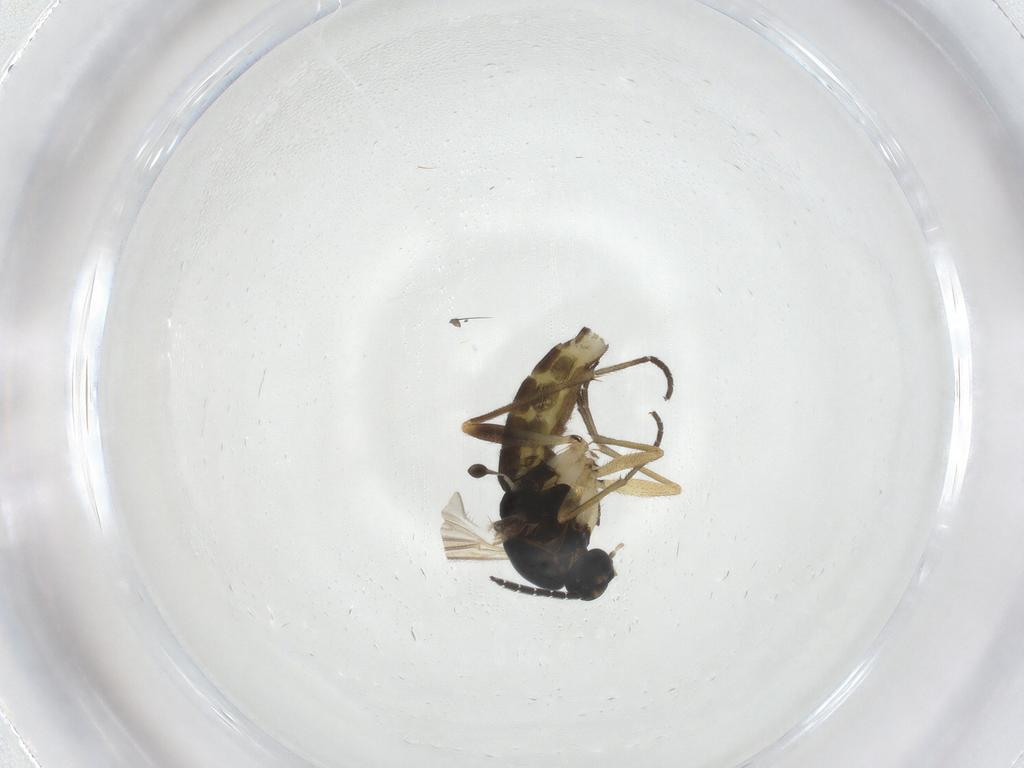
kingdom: Animalia
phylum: Arthropoda
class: Insecta
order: Diptera
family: Sciaridae
